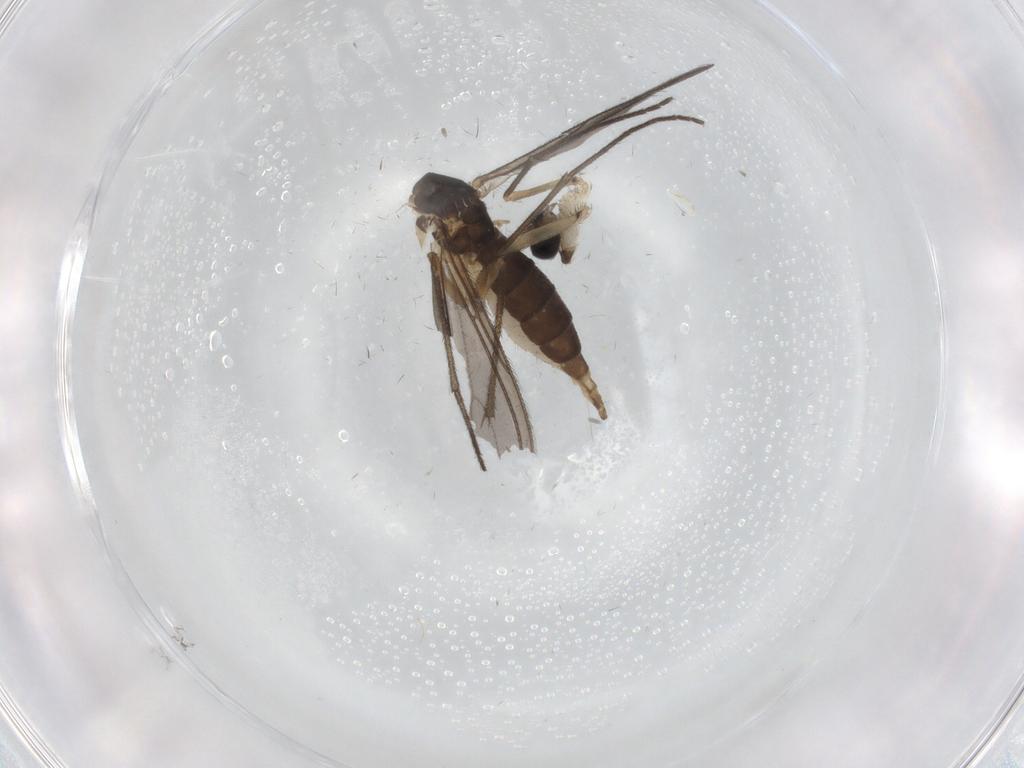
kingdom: Animalia
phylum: Arthropoda
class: Insecta
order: Diptera
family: Sciaridae
